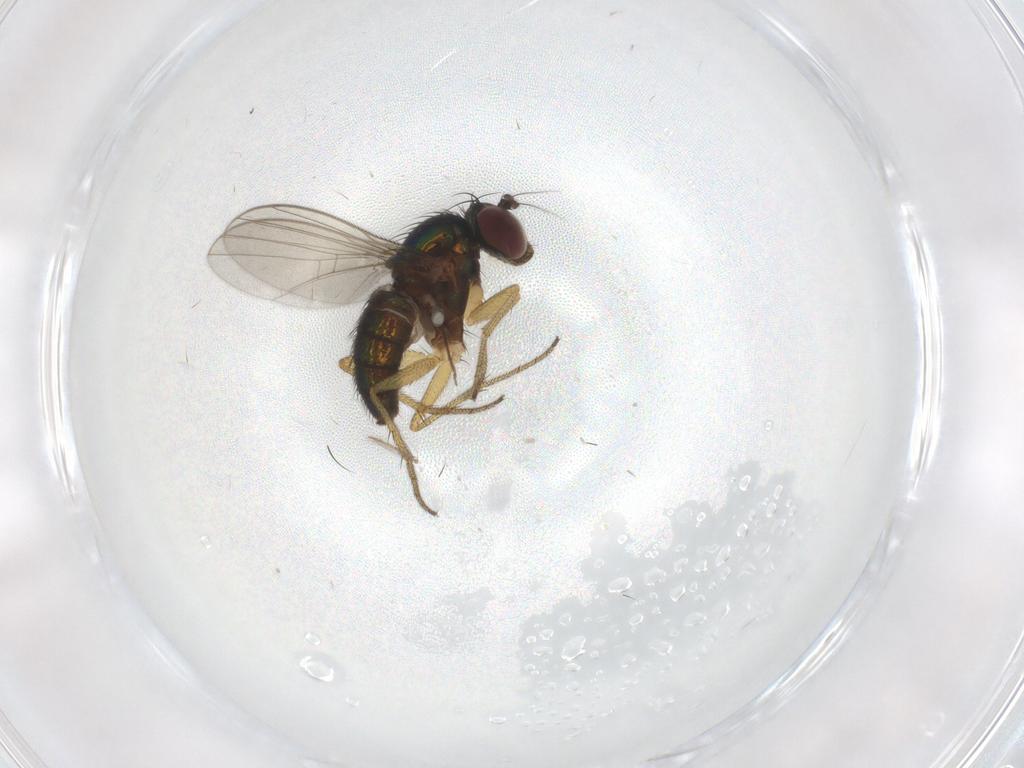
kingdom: Animalia
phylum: Arthropoda
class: Insecta
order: Diptera
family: Dolichopodidae
